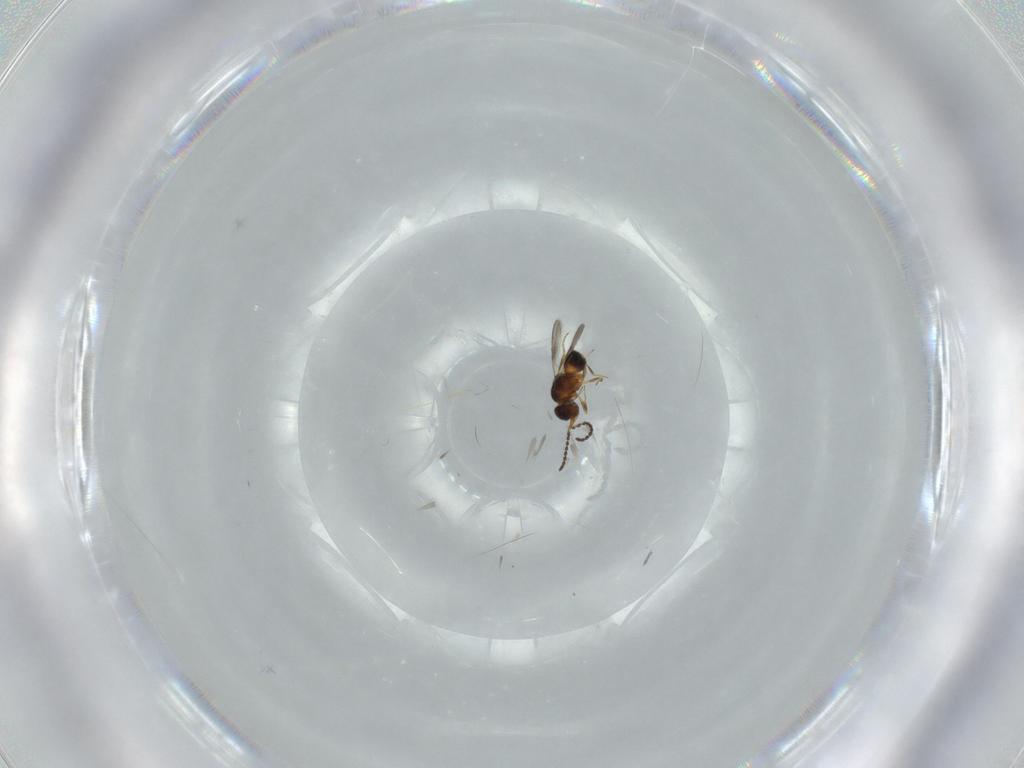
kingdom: Animalia
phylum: Arthropoda
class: Insecta
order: Hymenoptera
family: Ceraphronidae
